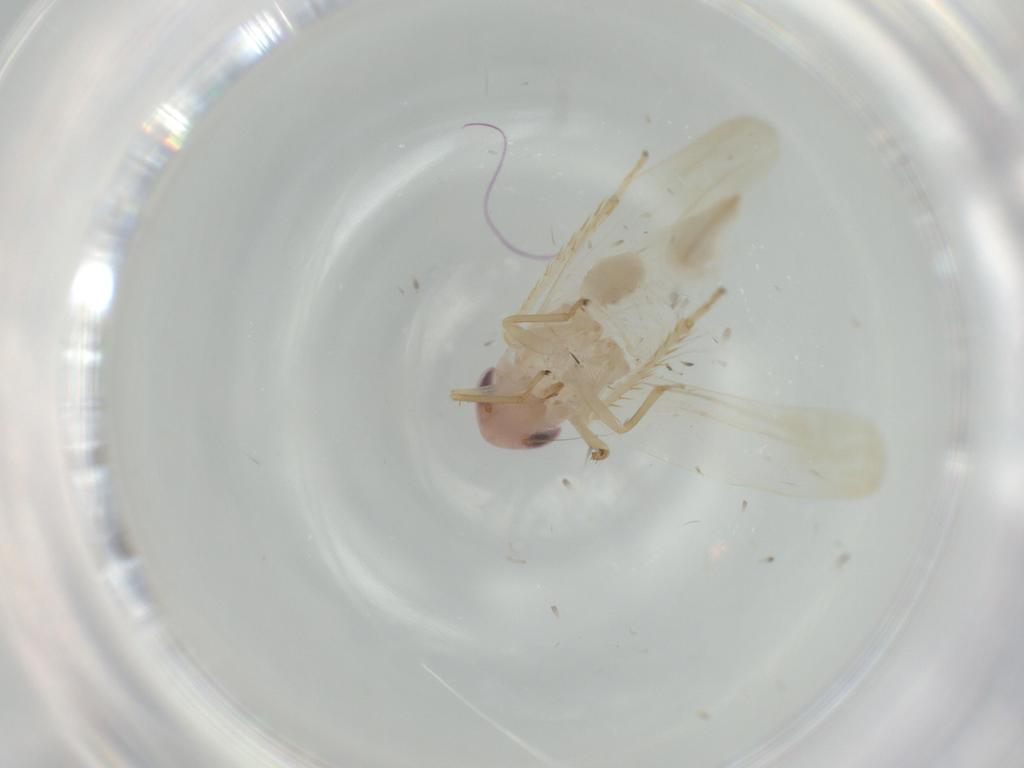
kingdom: Animalia
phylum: Arthropoda
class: Insecta
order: Hemiptera
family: Cicadellidae
